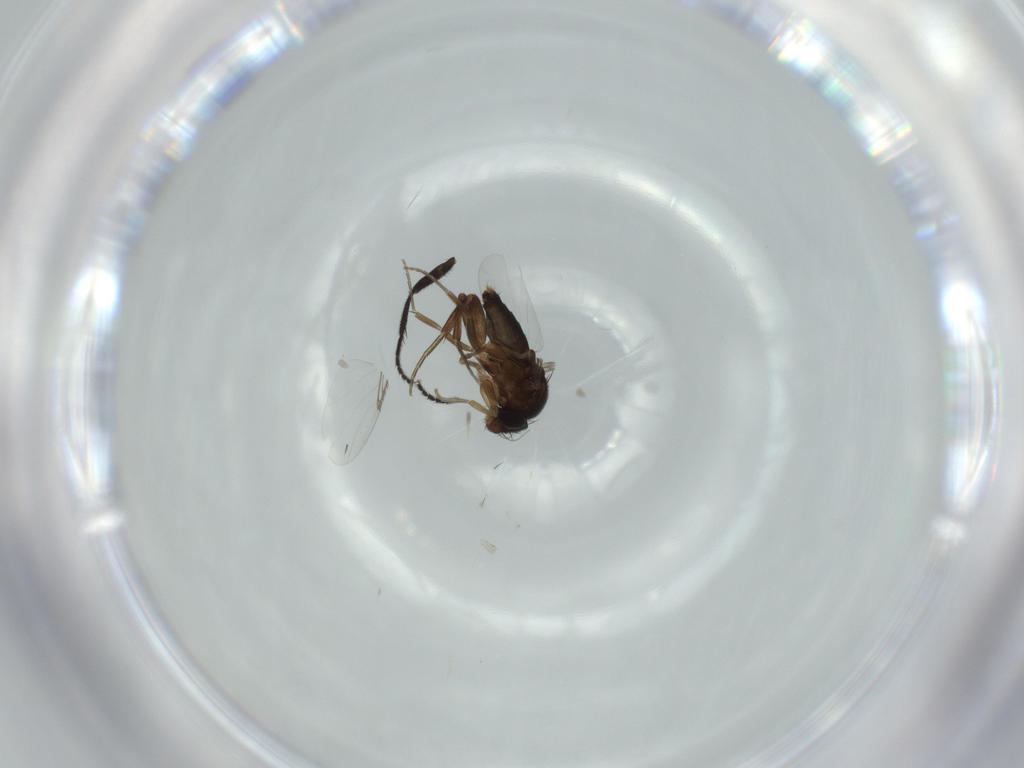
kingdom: Animalia
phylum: Arthropoda
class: Insecta
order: Diptera
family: Phoridae
